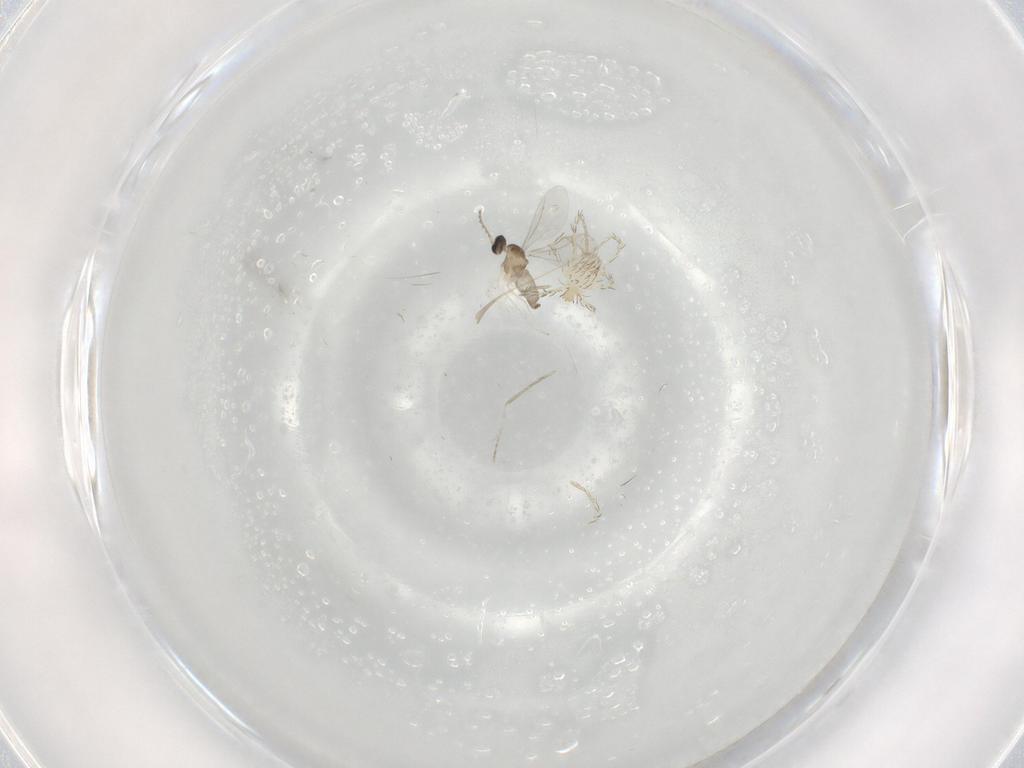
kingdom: Animalia
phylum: Arthropoda
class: Insecta
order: Diptera
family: Cecidomyiidae
